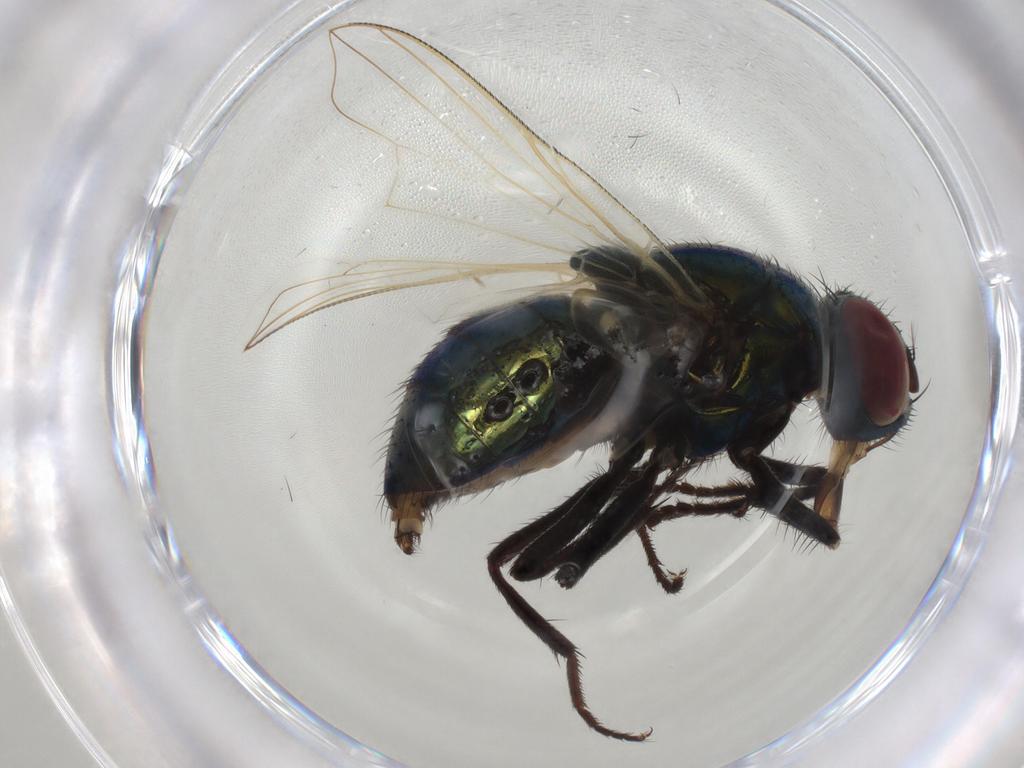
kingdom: Animalia
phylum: Arthropoda
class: Insecta
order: Diptera
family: Muscidae
